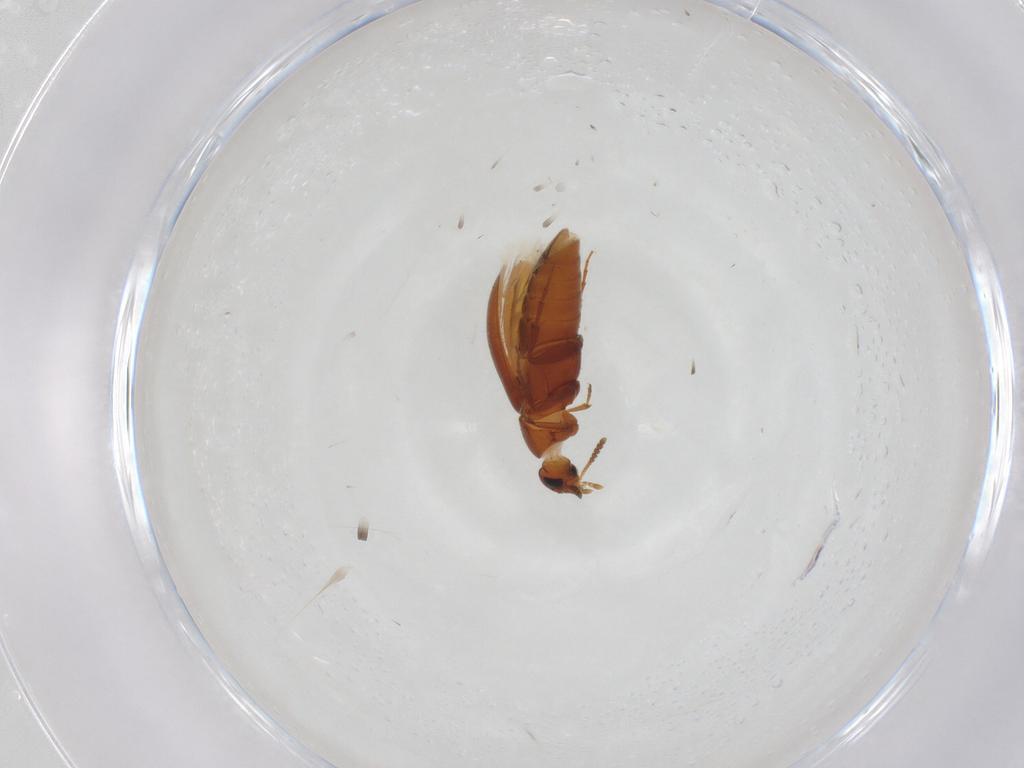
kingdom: Animalia
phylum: Arthropoda
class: Insecta
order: Coleoptera
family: Scraptiidae
